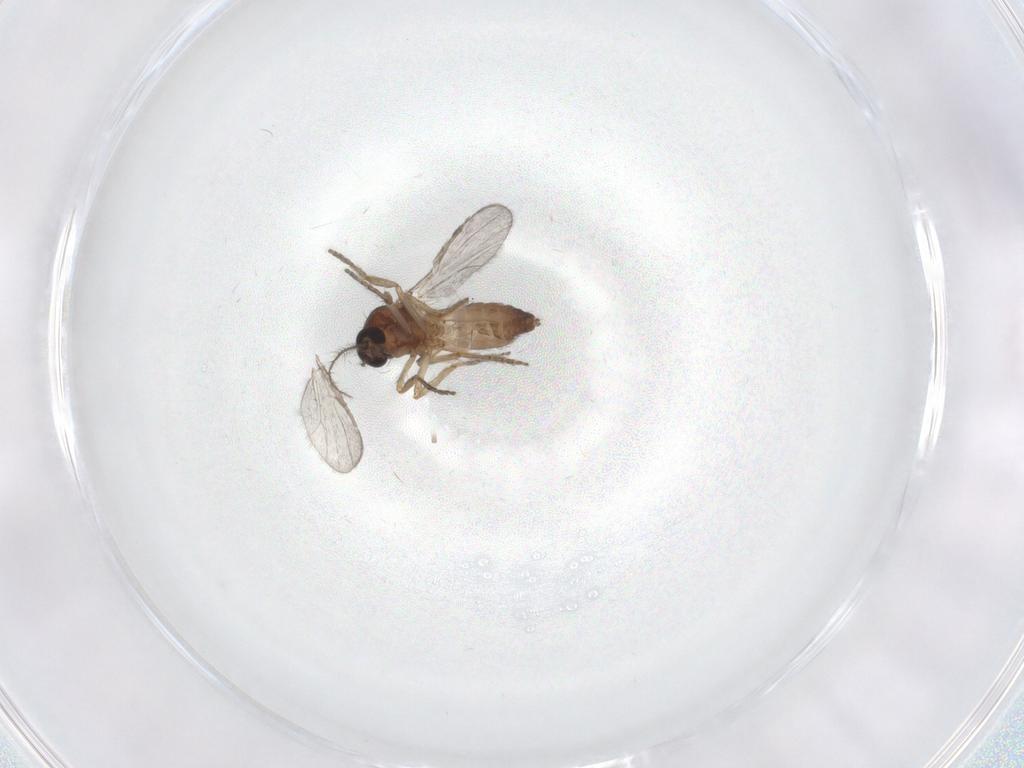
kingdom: Animalia
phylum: Arthropoda
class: Insecta
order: Diptera
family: Ceratopogonidae
